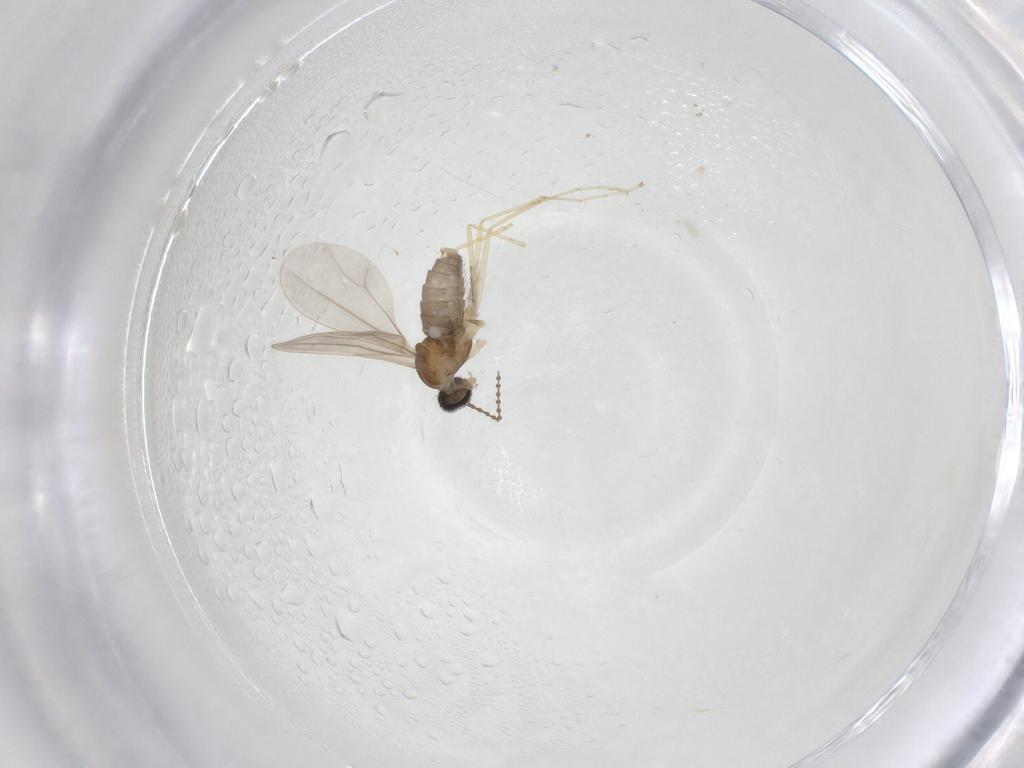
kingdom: Animalia
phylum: Arthropoda
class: Insecta
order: Diptera
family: Cecidomyiidae
